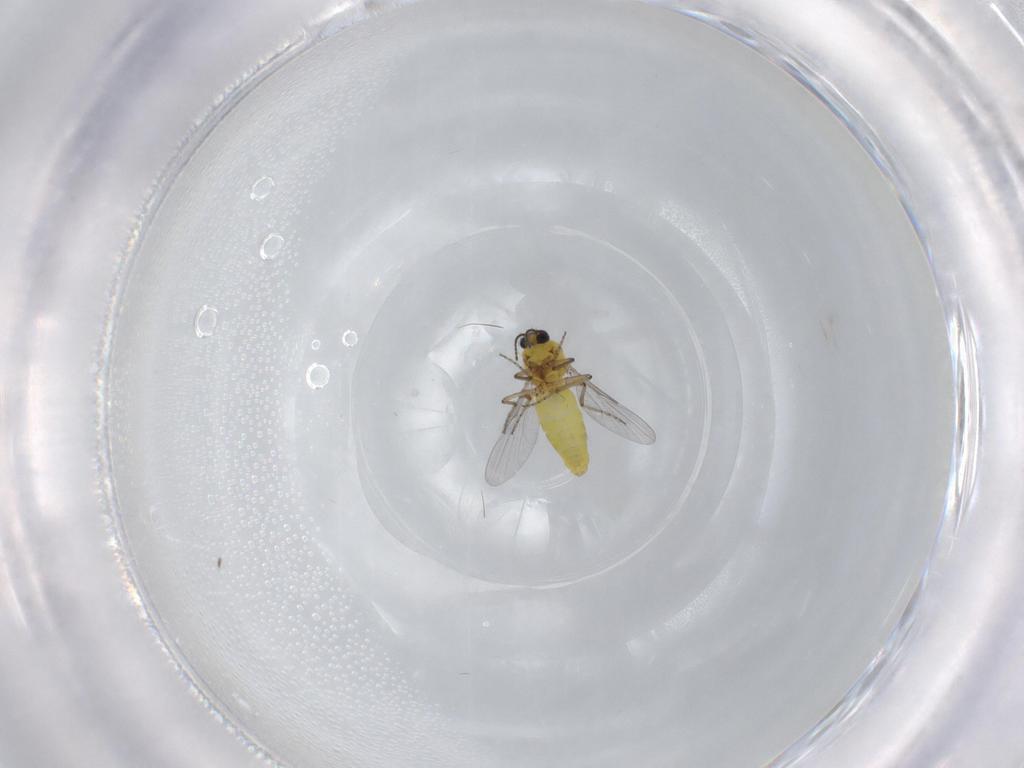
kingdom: Animalia
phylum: Arthropoda
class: Insecta
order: Diptera
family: Ceratopogonidae
